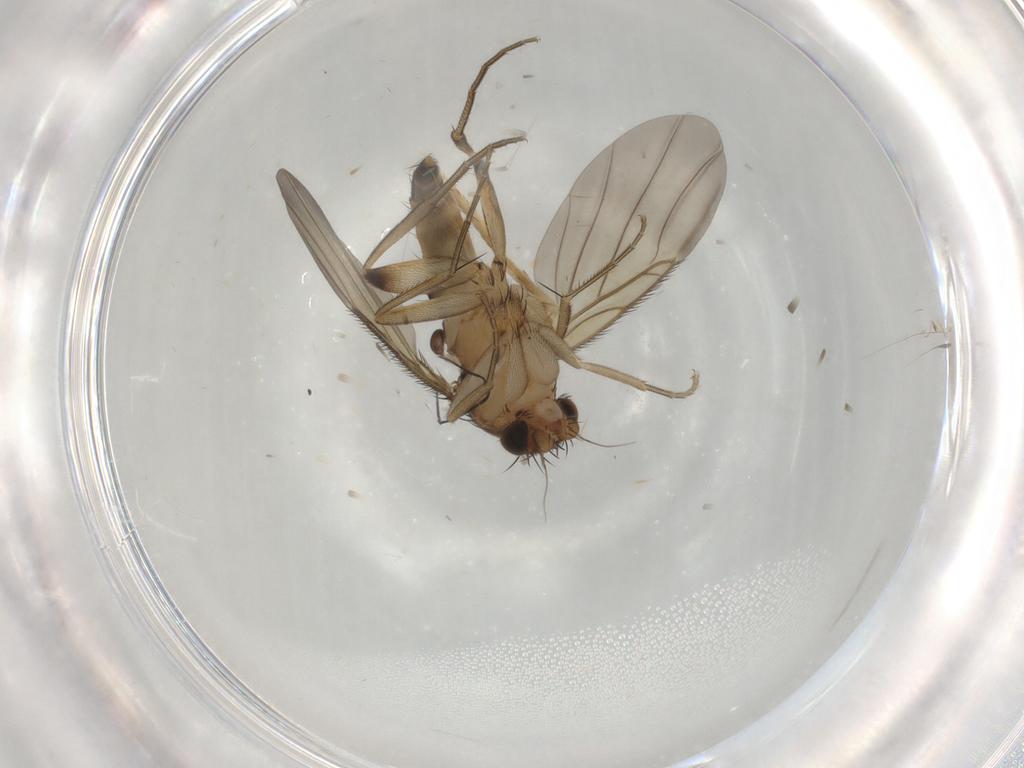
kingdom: Animalia
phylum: Arthropoda
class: Insecta
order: Diptera
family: Phoridae
